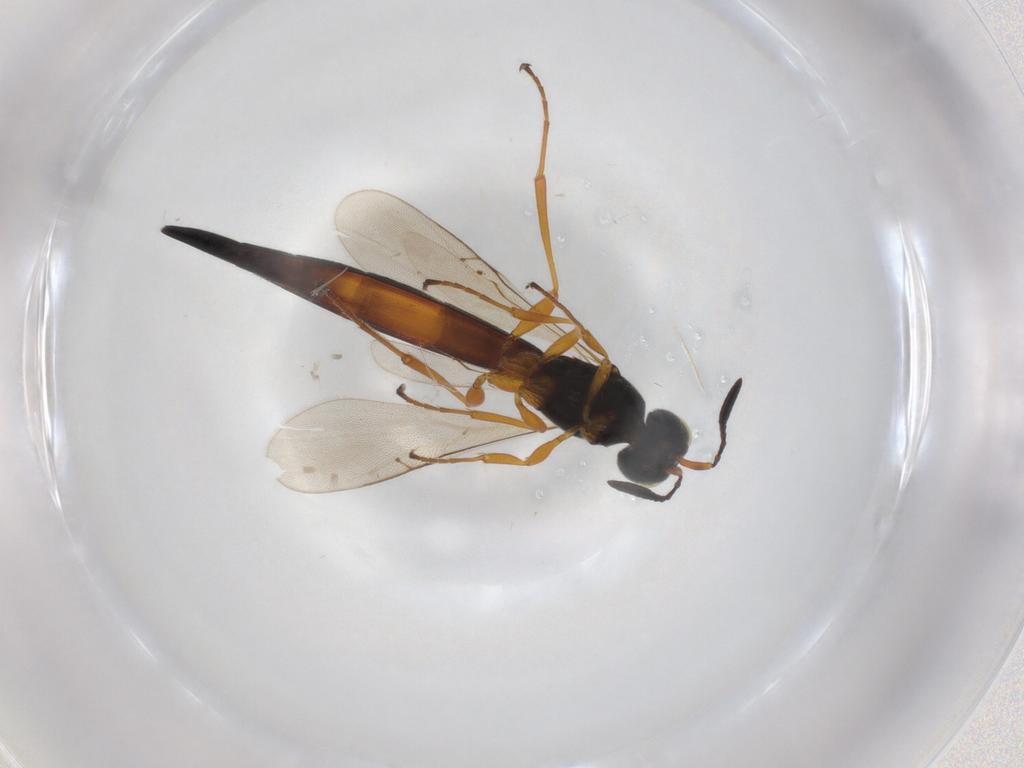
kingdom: Animalia
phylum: Arthropoda
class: Insecta
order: Hymenoptera
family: Scelionidae
